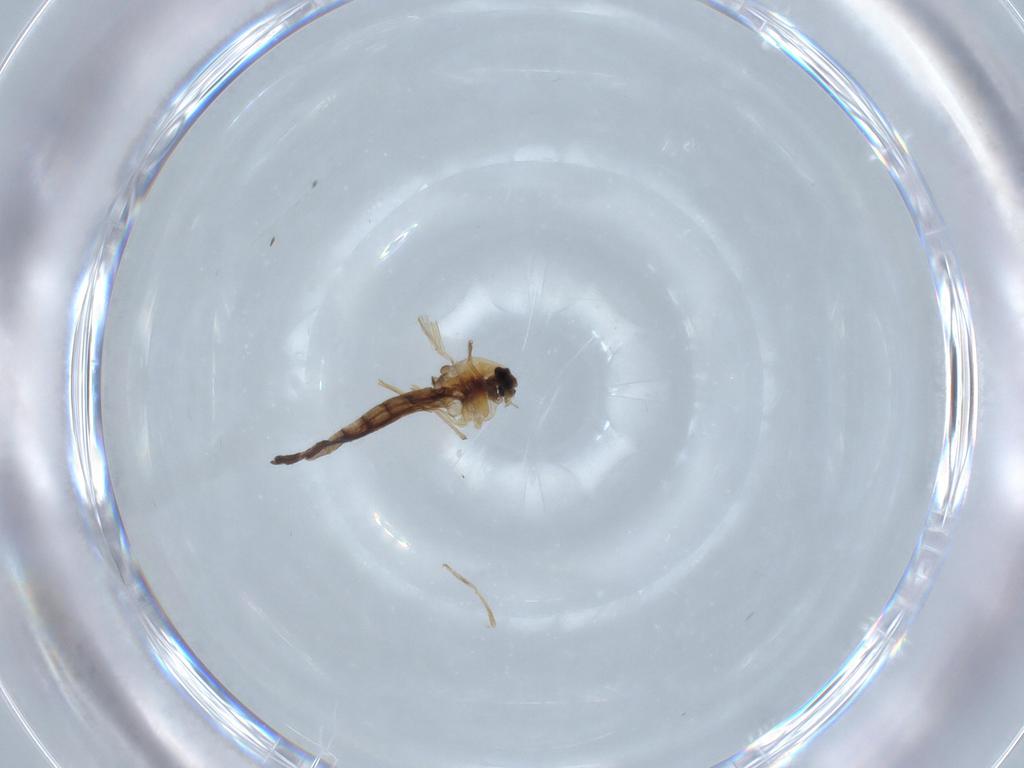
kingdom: Animalia
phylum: Arthropoda
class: Insecta
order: Diptera
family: Chironomidae
